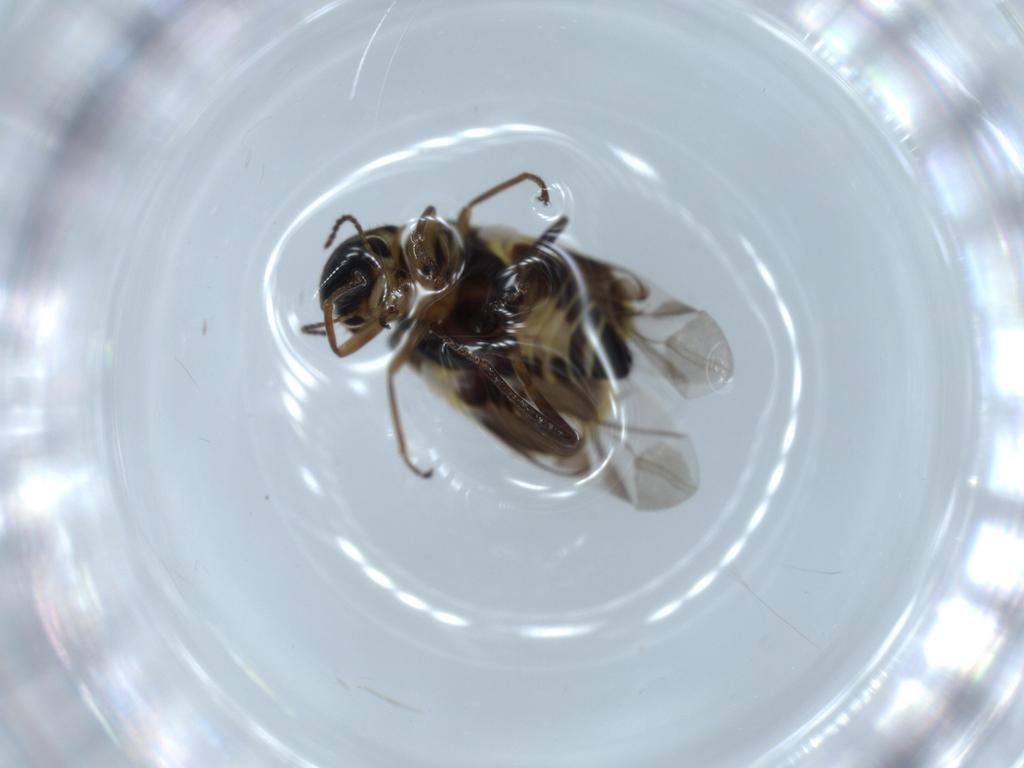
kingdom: Animalia
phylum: Arthropoda
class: Insecta
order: Coleoptera
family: Melyridae
